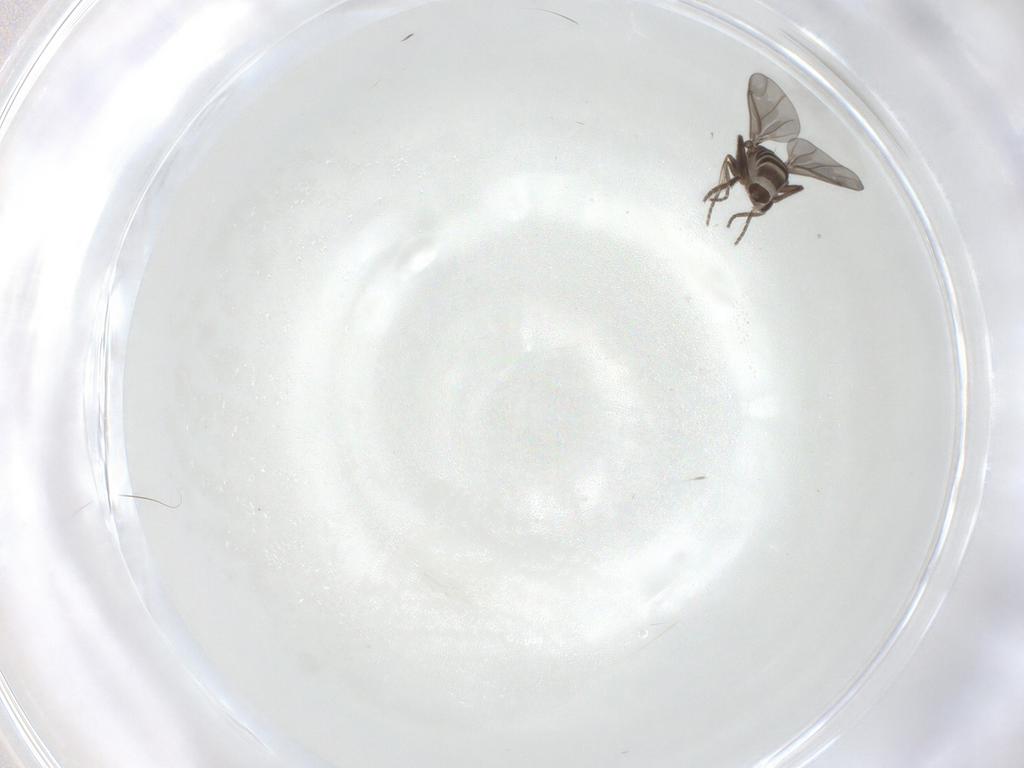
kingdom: Animalia
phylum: Arthropoda
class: Insecta
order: Diptera
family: Phoridae
